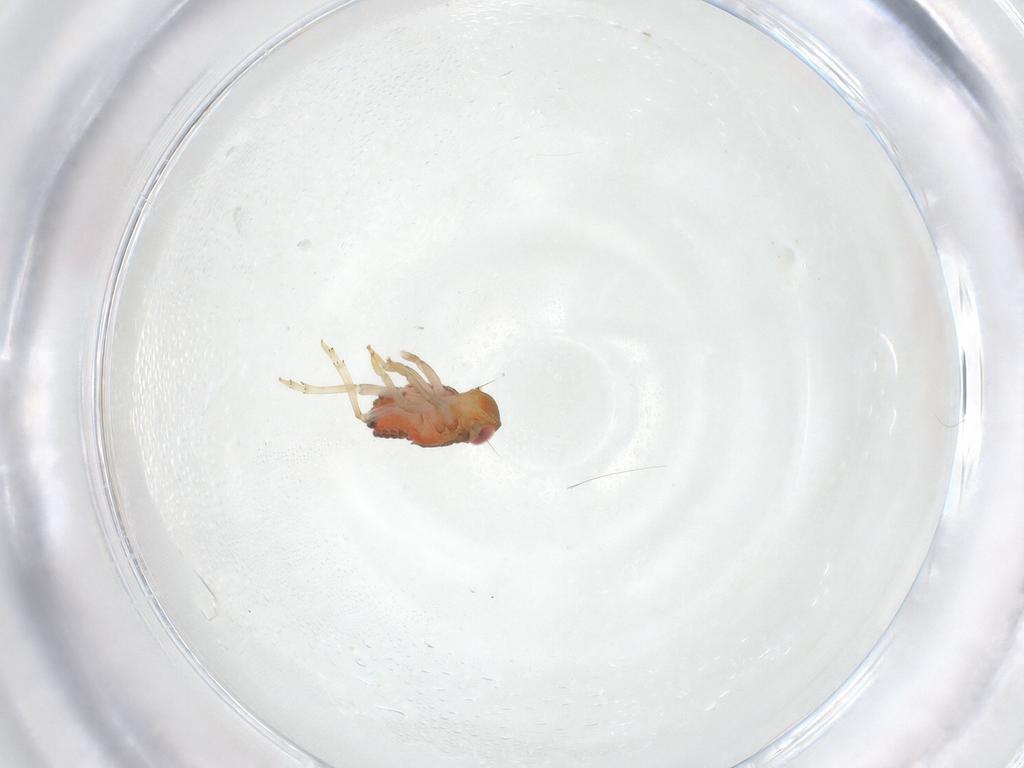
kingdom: Animalia
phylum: Arthropoda
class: Insecta
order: Hemiptera
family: Issidae
